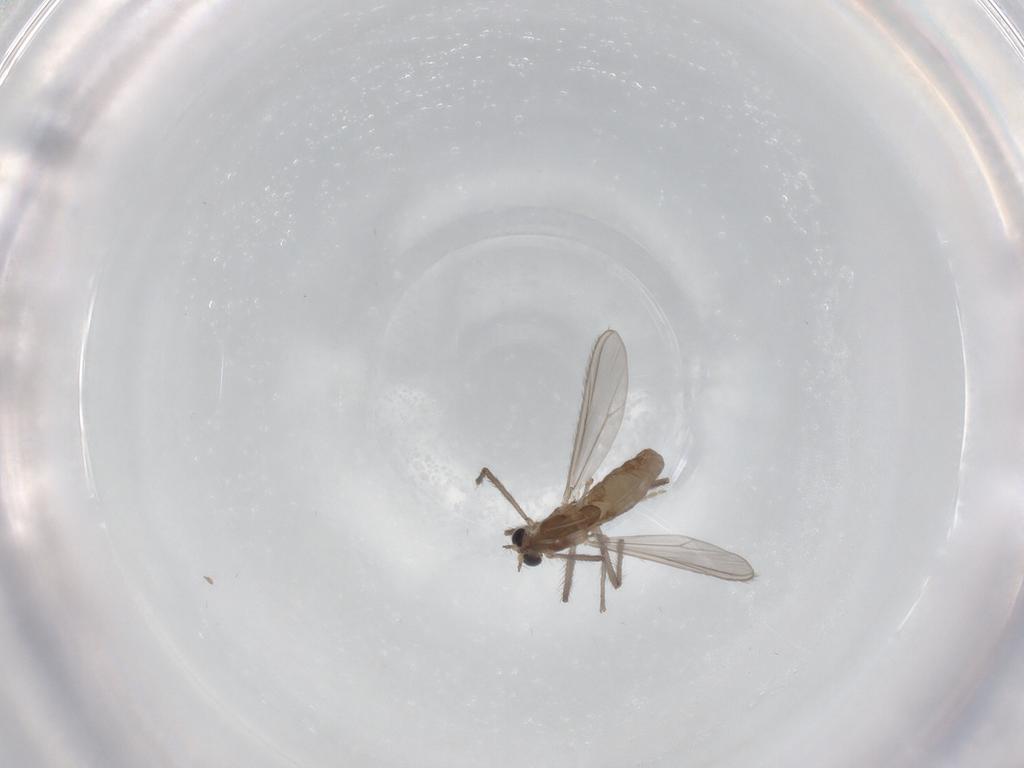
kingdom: Animalia
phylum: Arthropoda
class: Insecta
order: Diptera
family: Chironomidae
